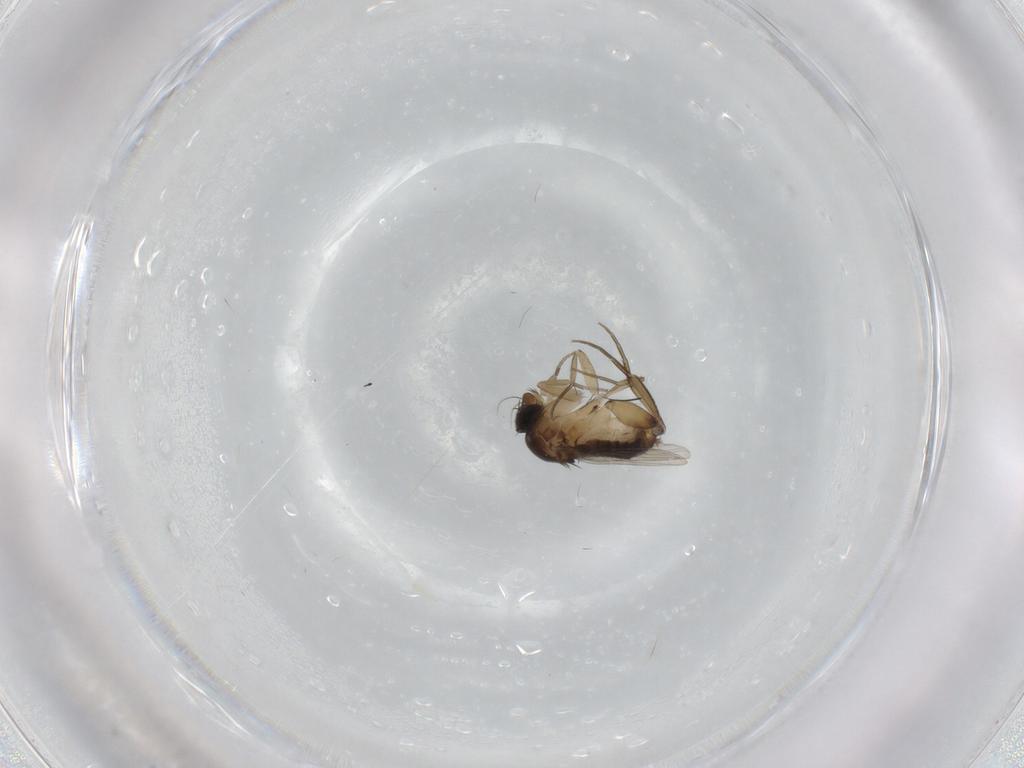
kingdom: Animalia
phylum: Arthropoda
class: Insecta
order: Diptera
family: Phoridae
